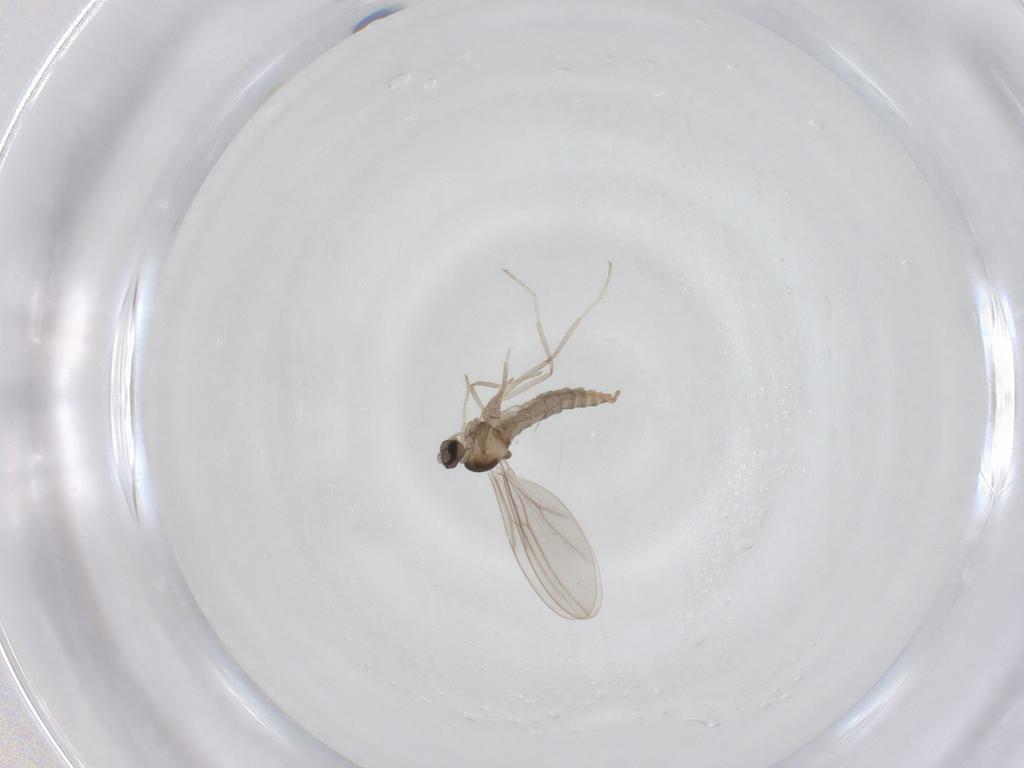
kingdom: Animalia
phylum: Arthropoda
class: Insecta
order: Diptera
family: Cecidomyiidae
